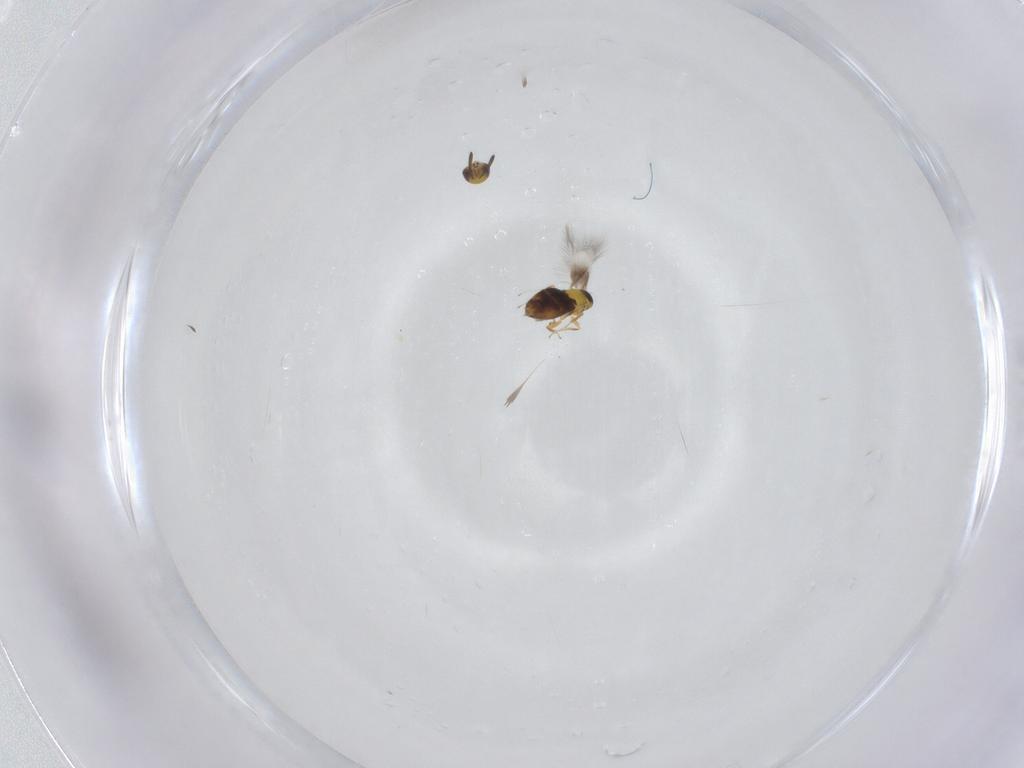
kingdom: Animalia
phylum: Arthropoda
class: Insecta
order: Hymenoptera
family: Signiphoridae
